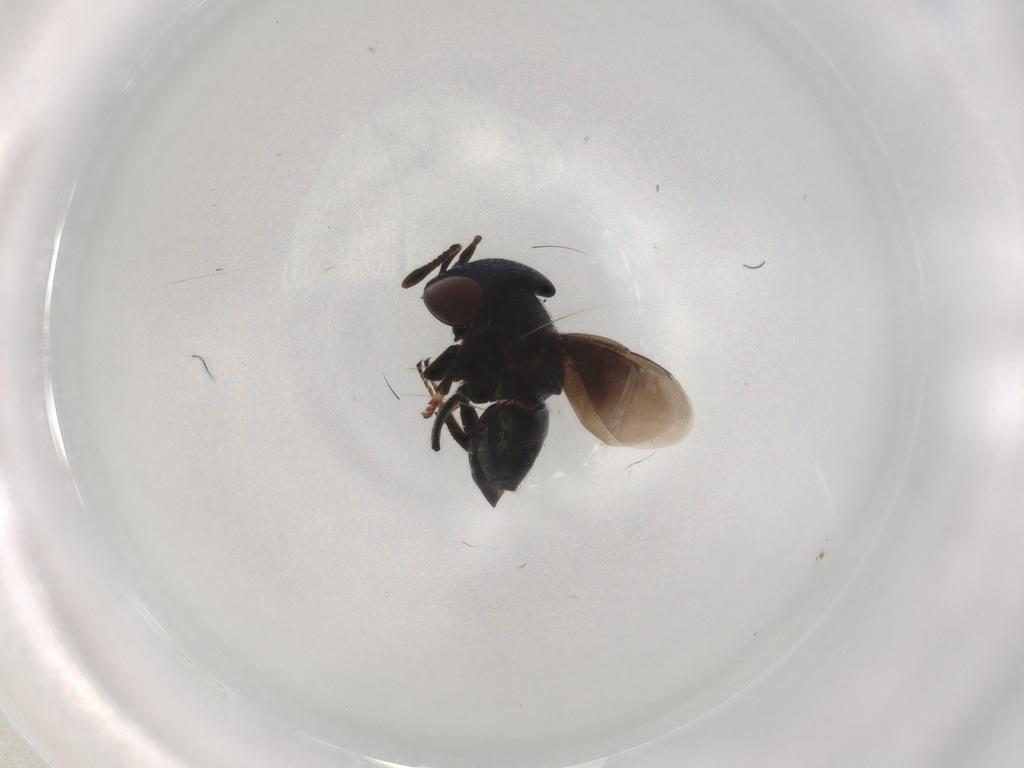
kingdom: Animalia
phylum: Arthropoda
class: Insecta
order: Hymenoptera
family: Encyrtidae
